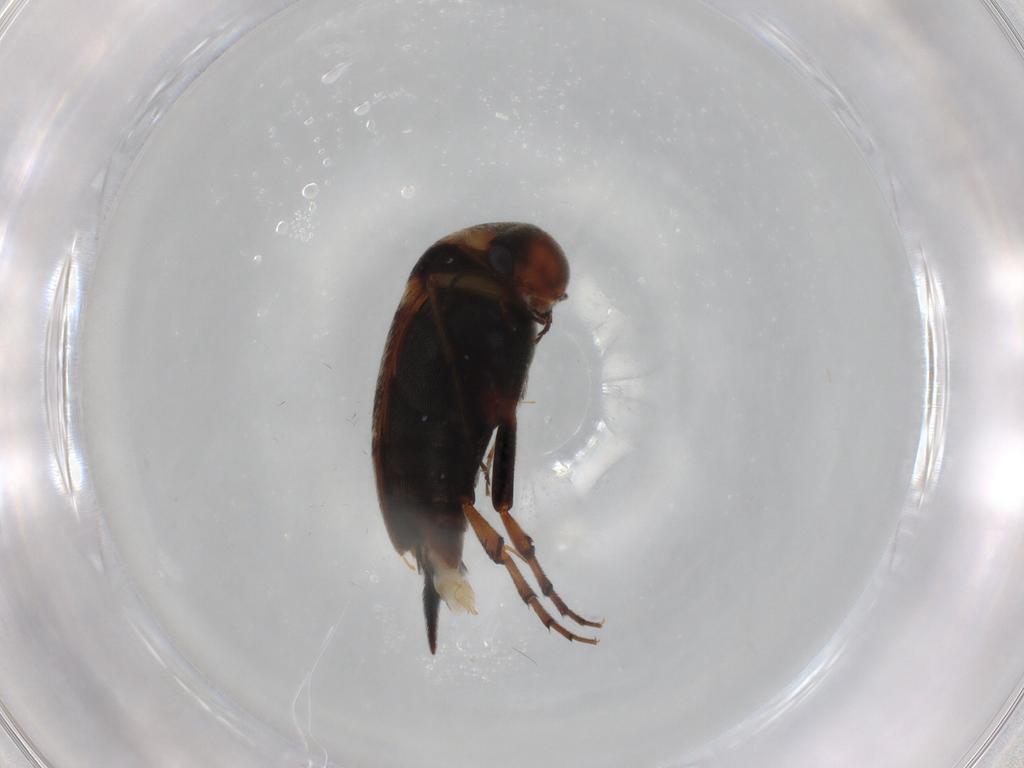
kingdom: Animalia
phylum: Arthropoda
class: Insecta
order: Coleoptera
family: Mordellidae
